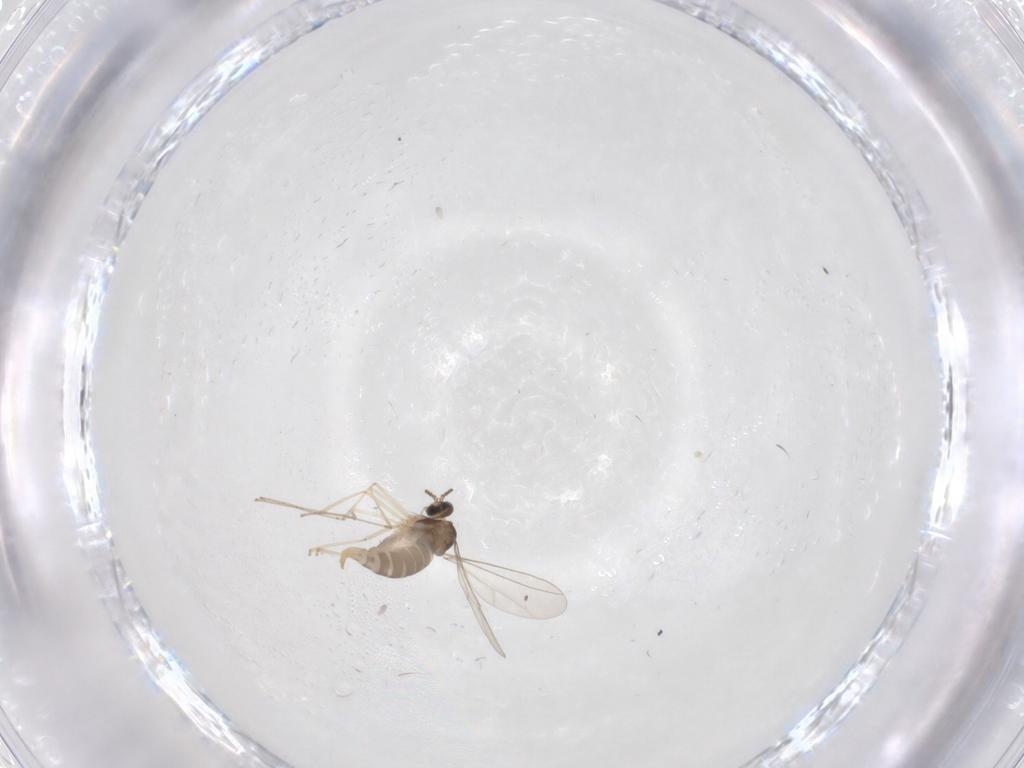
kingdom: Animalia
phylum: Arthropoda
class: Insecta
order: Diptera
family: Cecidomyiidae
